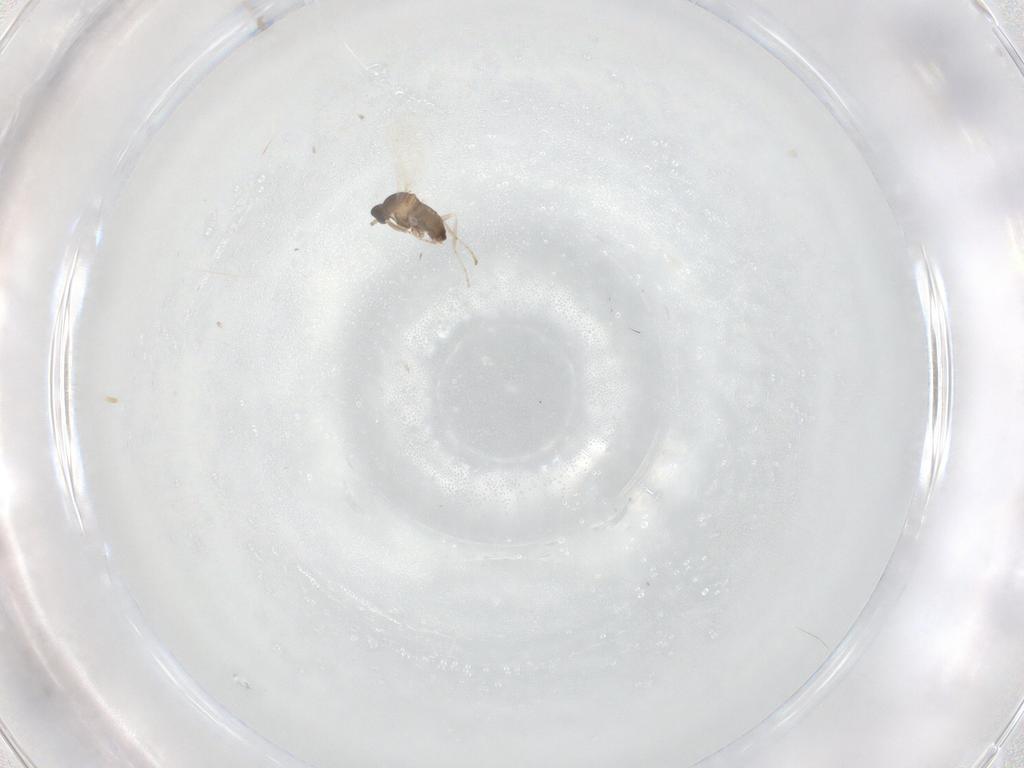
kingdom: Animalia
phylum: Arthropoda
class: Insecta
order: Diptera
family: Cecidomyiidae
